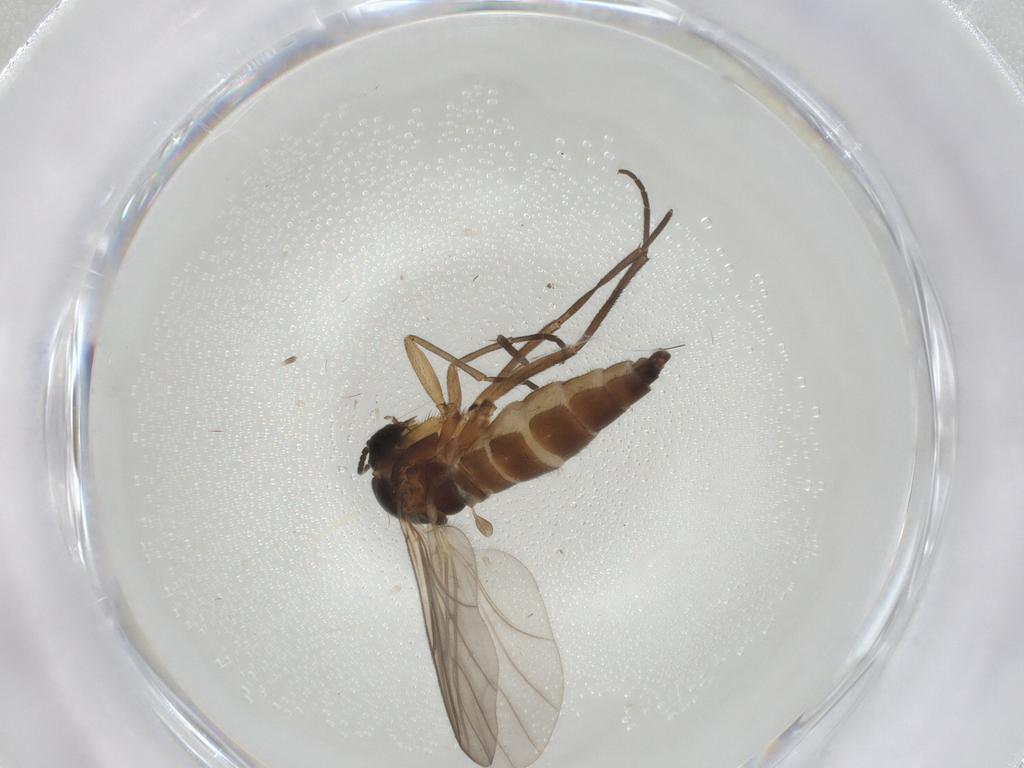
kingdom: Animalia
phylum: Arthropoda
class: Insecta
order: Diptera
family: Sciaridae
